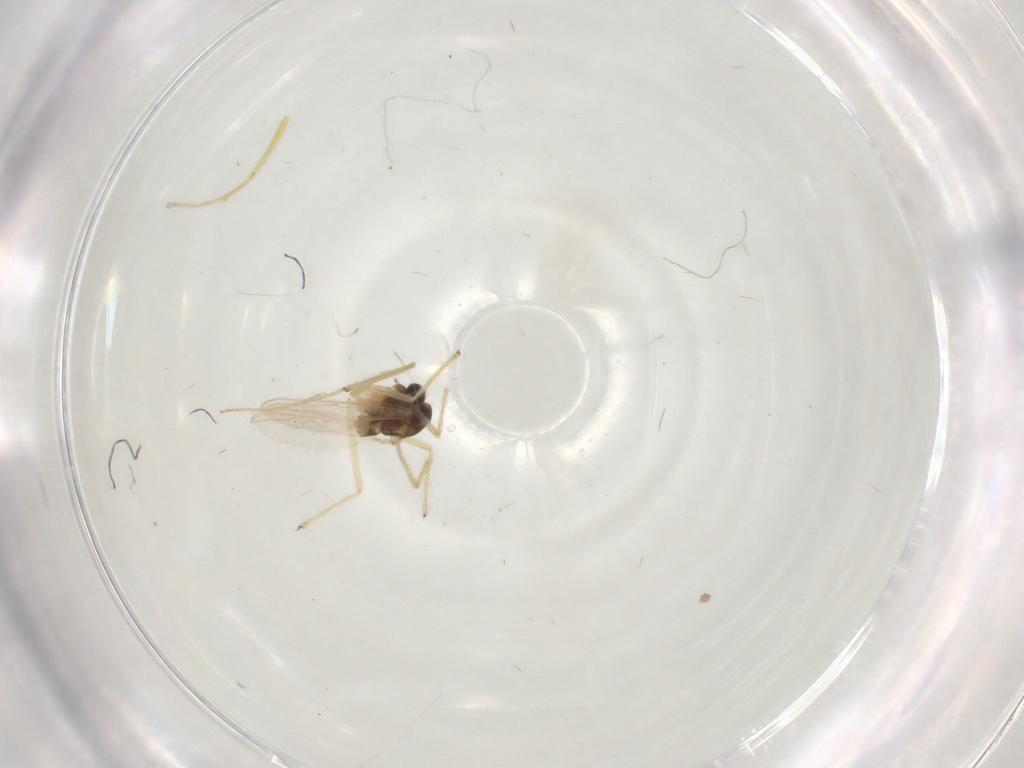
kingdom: Animalia
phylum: Arthropoda
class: Insecta
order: Diptera
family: Chironomidae
